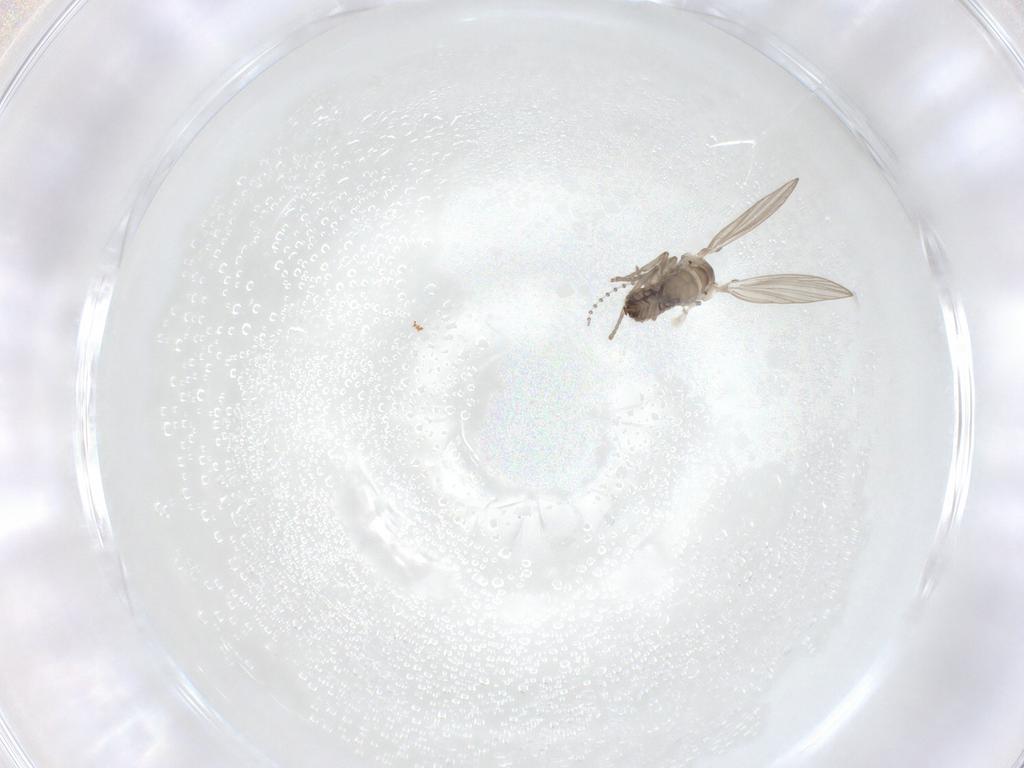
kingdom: Animalia
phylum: Arthropoda
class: Insecta
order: Diptera
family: Psychodidae
